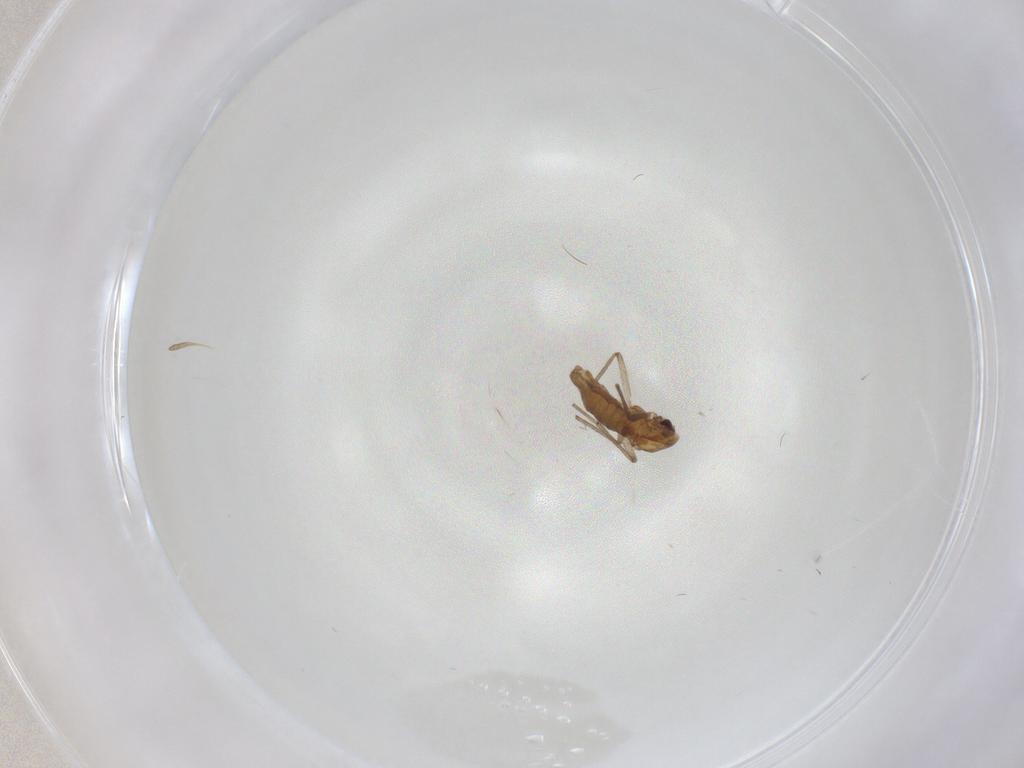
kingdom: Animalia
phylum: Arthropoda
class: Insecta
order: Diptera
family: Chironomidae
